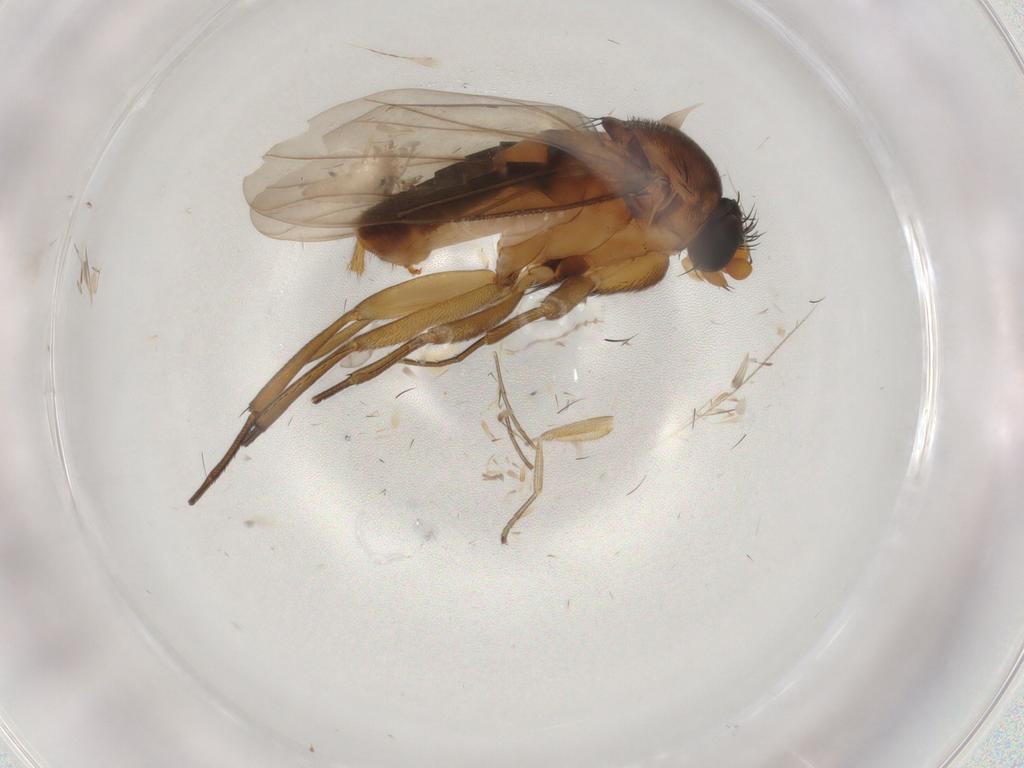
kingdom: Animalia
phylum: Arthropoda
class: Insecta
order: Diptera
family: Phoridae
